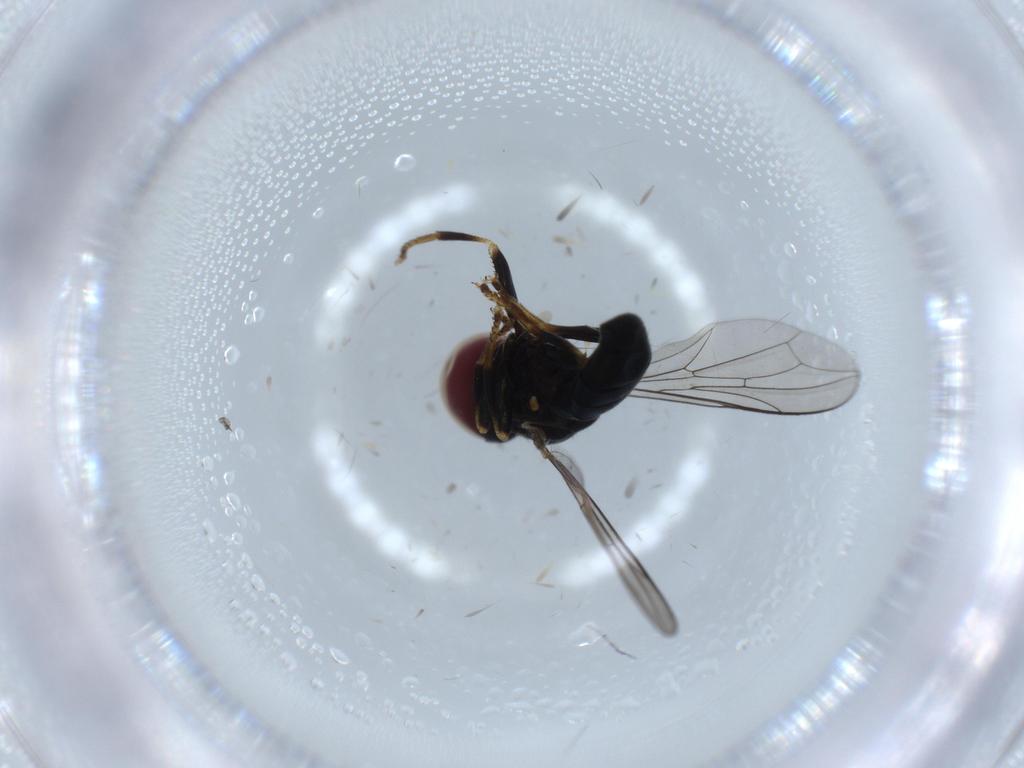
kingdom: Animalia
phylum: Arthropoda
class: Insecta
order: Diptera
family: Pipunculidae
